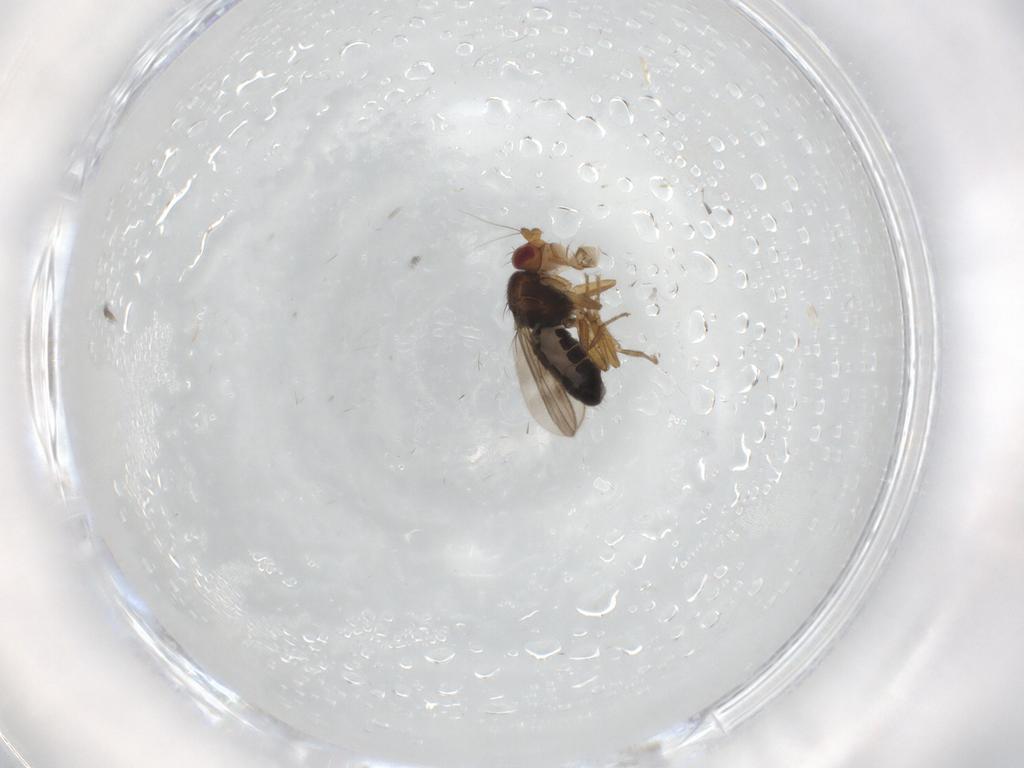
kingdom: Animalia
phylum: Arthropoda
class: Insecta
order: Diptera
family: Sphaeroceridae
